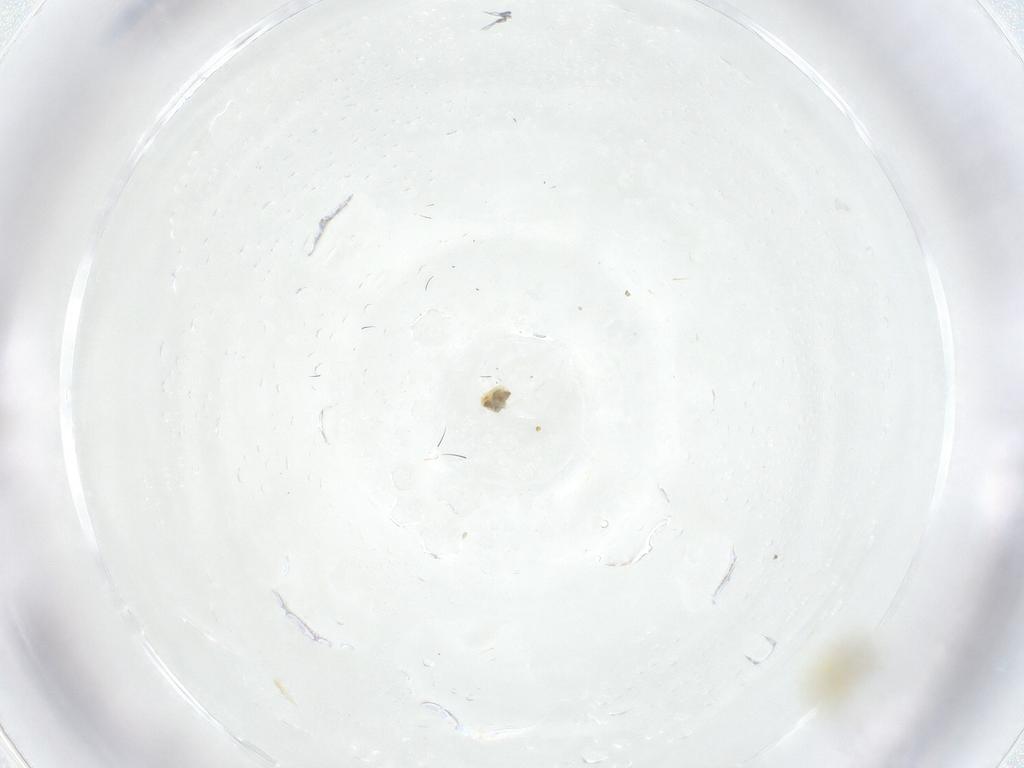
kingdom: Animalia
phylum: Arthropoda
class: Insecta
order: Hemiptera
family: Aleyrodidae
